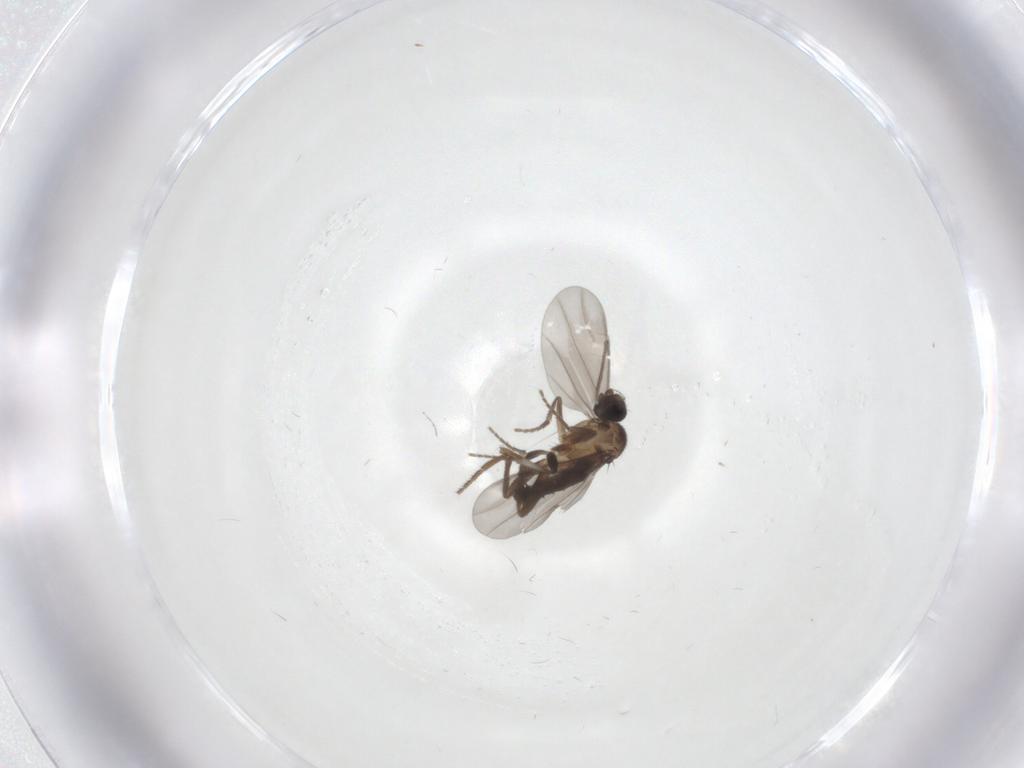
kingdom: Animalia
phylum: Arthropoda
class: Insecta
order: Diptera
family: Phoridae
